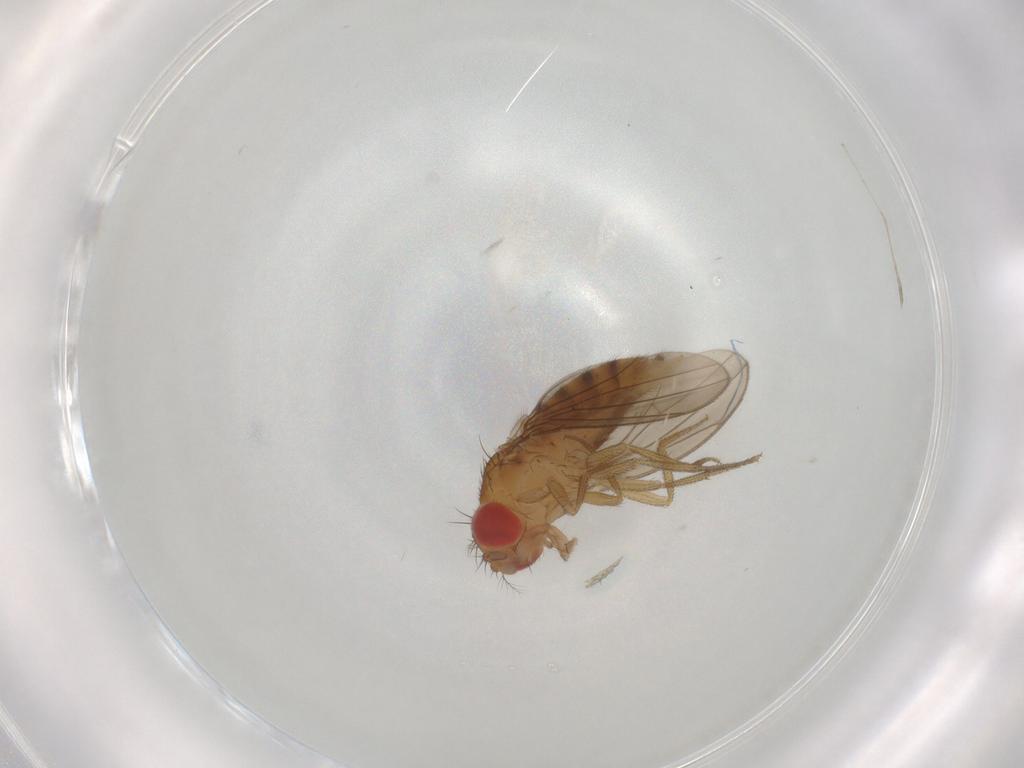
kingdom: Animalia
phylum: Arthropoda
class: Insecta
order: Diptera
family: Drosophilidae
